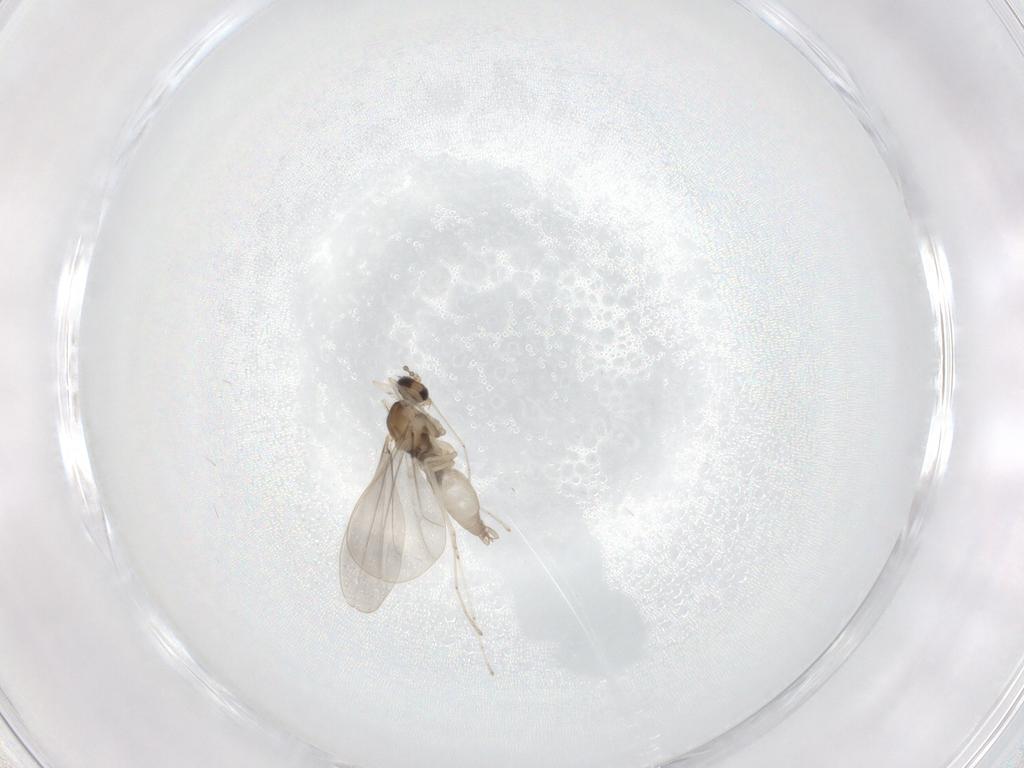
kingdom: Animalia
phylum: Arthropoda
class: Insecta
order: Diptera
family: Cecidomyiidae
